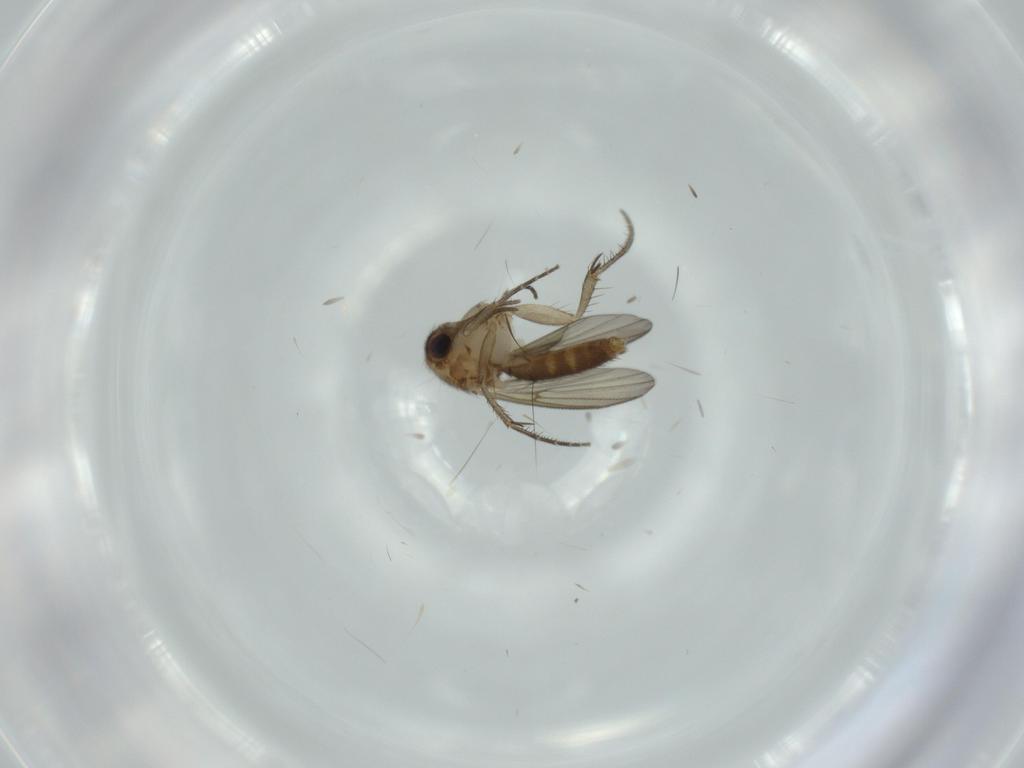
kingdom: Animalia
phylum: Arthropoda
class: Insecta
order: Diptera
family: Mycetophilidae
